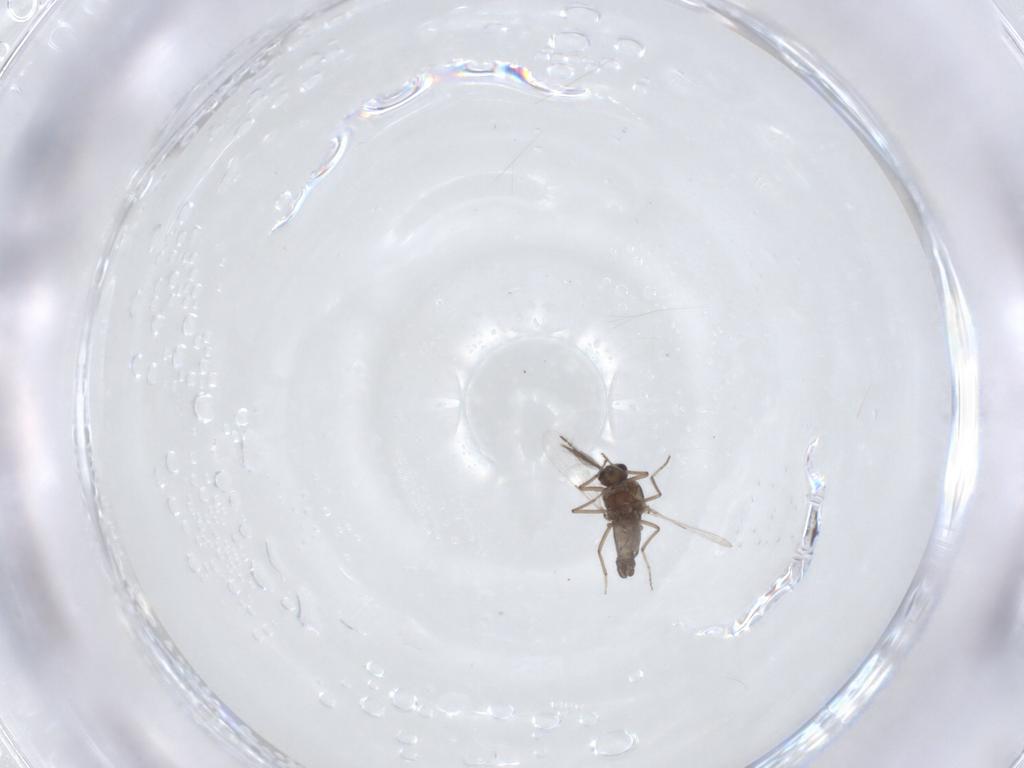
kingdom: Animalia
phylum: Arthropoda
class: Insecta
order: Diptera
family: Ceratopogonidae
